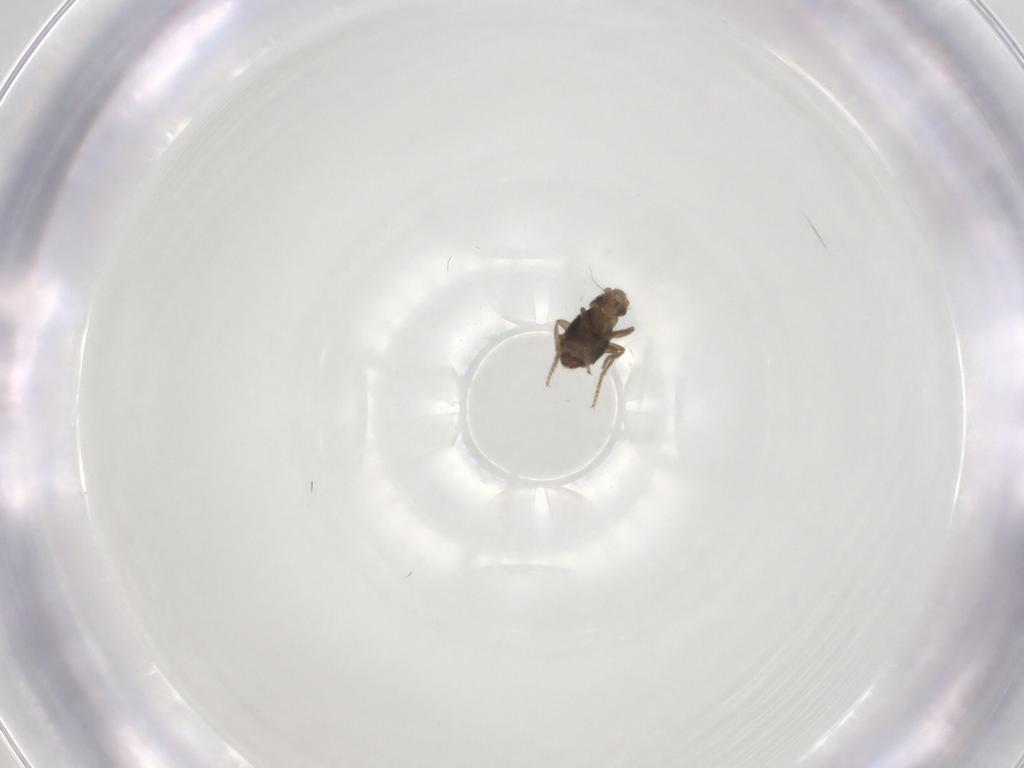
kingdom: Animalia
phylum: Arthropoda
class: Insecta
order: Diptera
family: Phoridae
